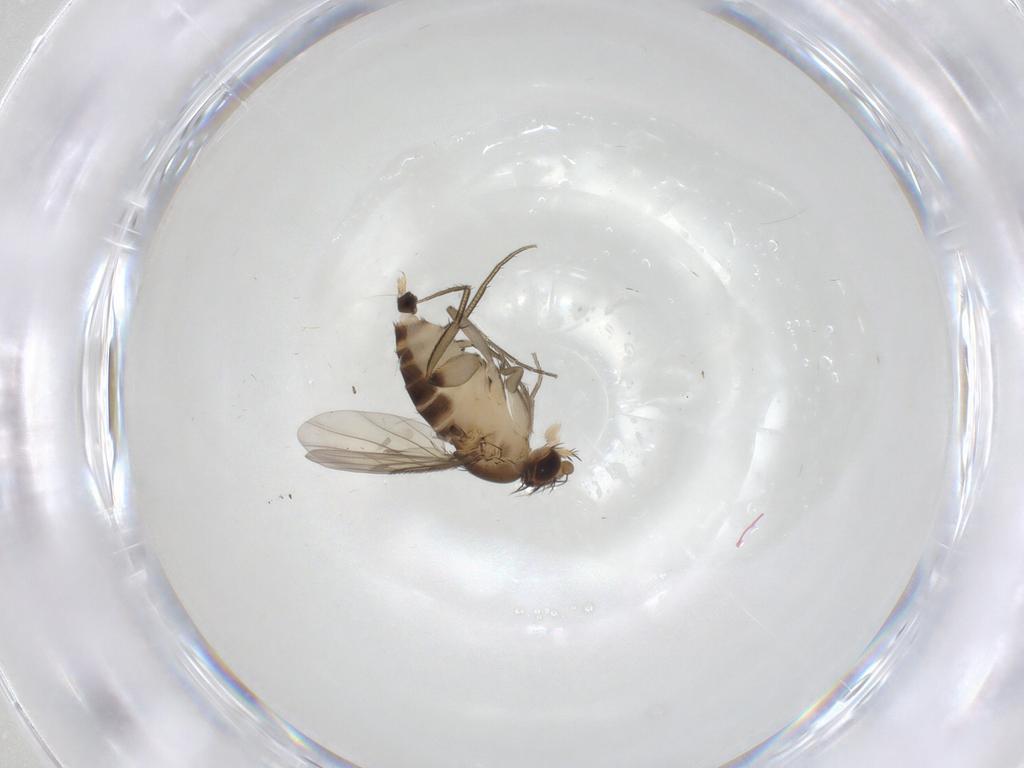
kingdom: Animalia
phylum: Arthropoda
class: Insecta
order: Diptera
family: Phoridae
